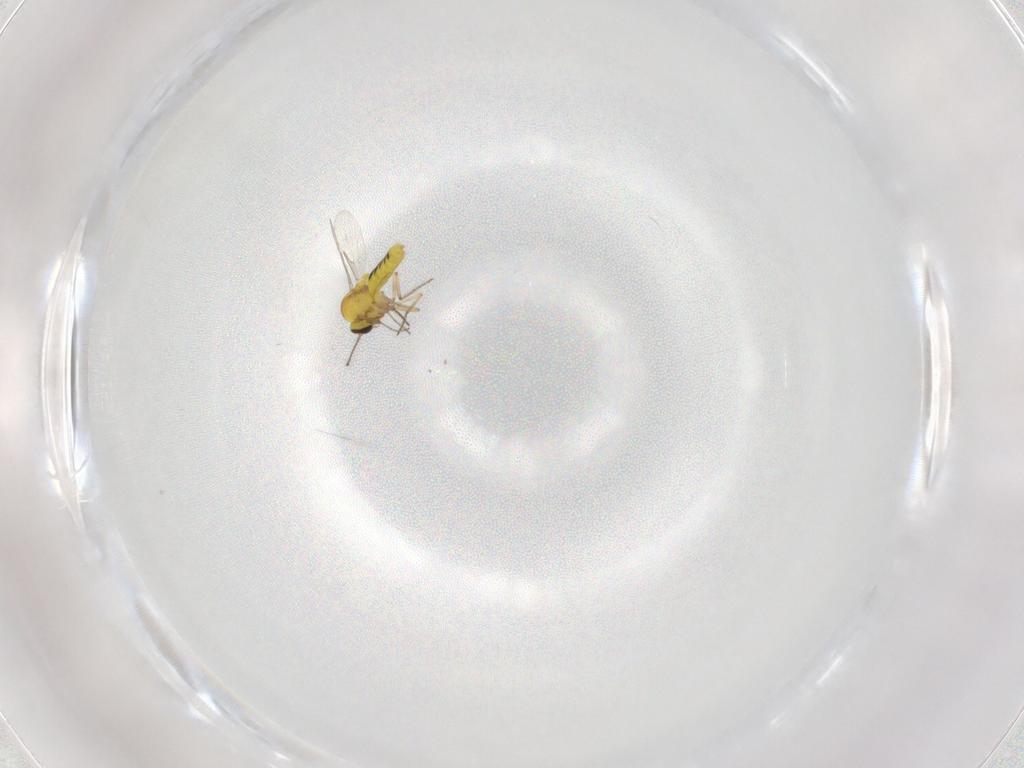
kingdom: Animalia
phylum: Arthropoda
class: Insecta
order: Diptera
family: Ceratopogonidae
